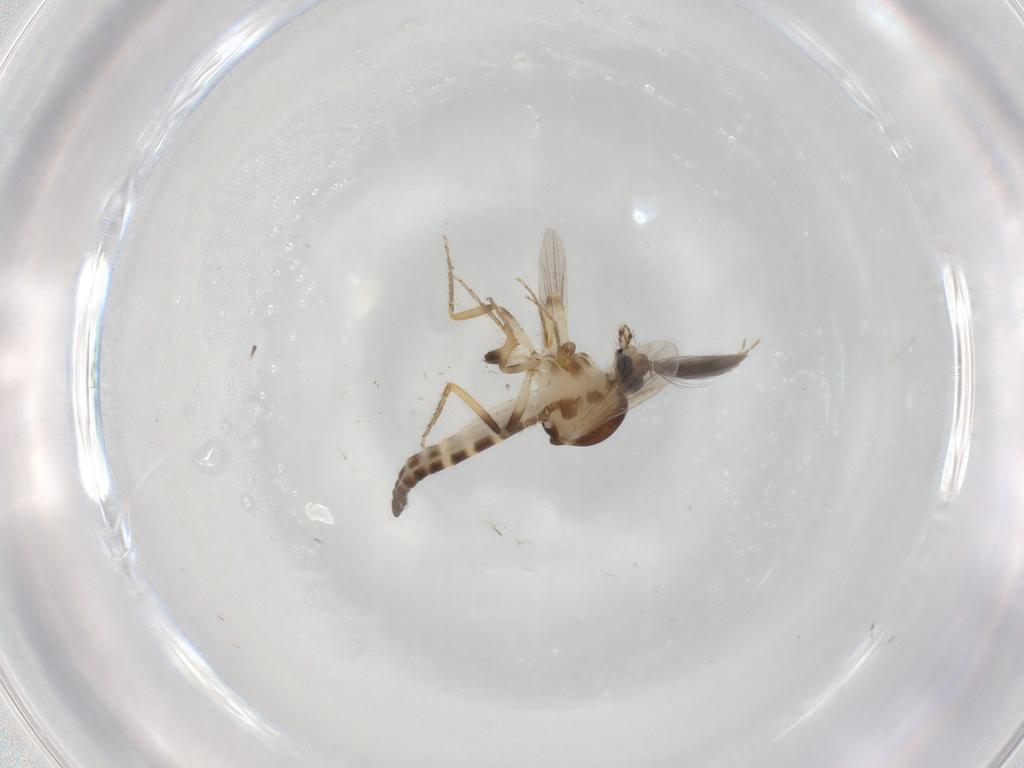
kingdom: Animalia
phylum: Arthropoda
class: Insecta
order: Diptera
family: Ceratopogonidae
